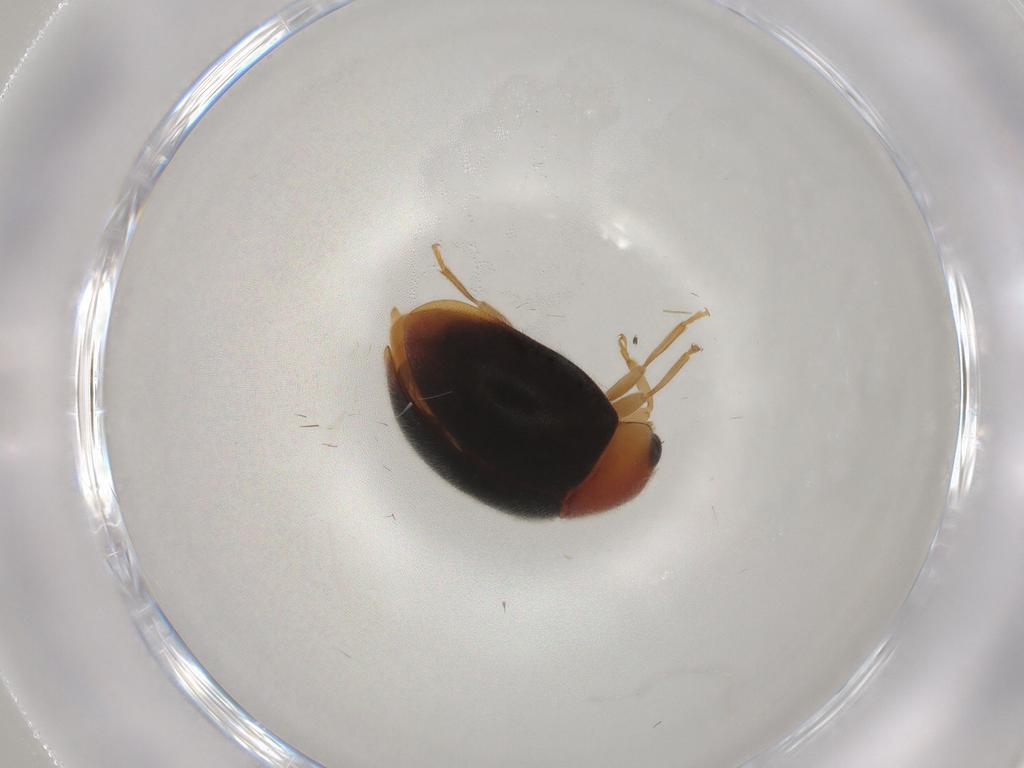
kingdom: Animalia
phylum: Arthropoda
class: Insecta
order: Coleoptera
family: Coccinellidae
